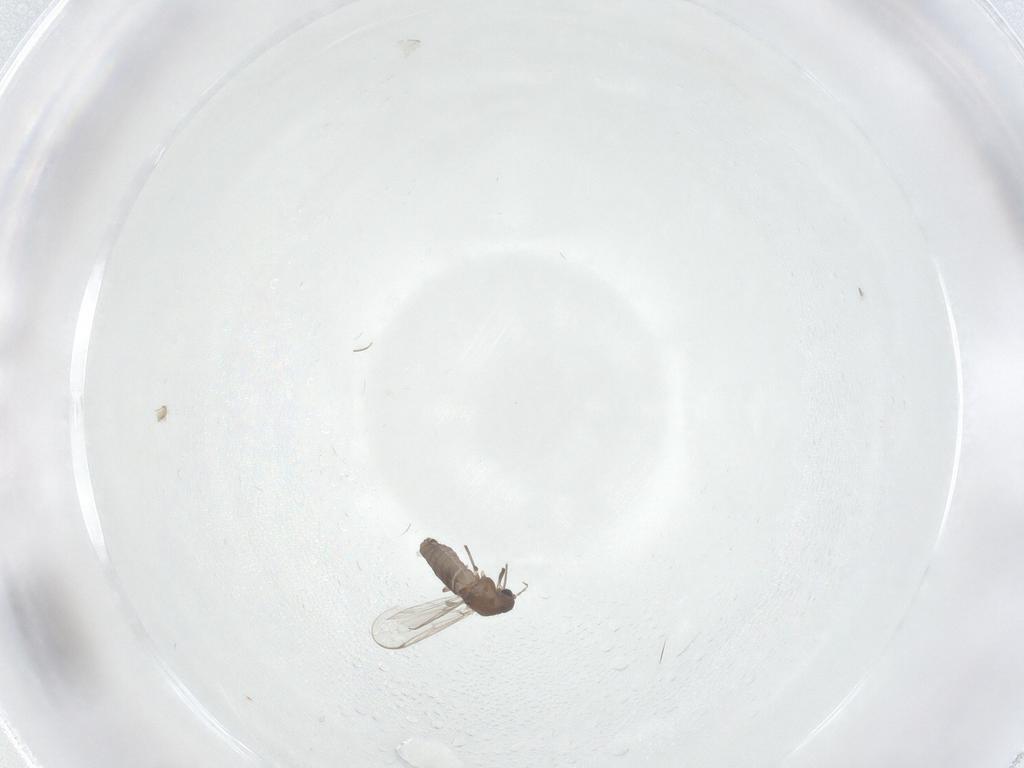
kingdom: Animalia
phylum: Arthropoda
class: Insecta
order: Diptera
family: Chironomidae
